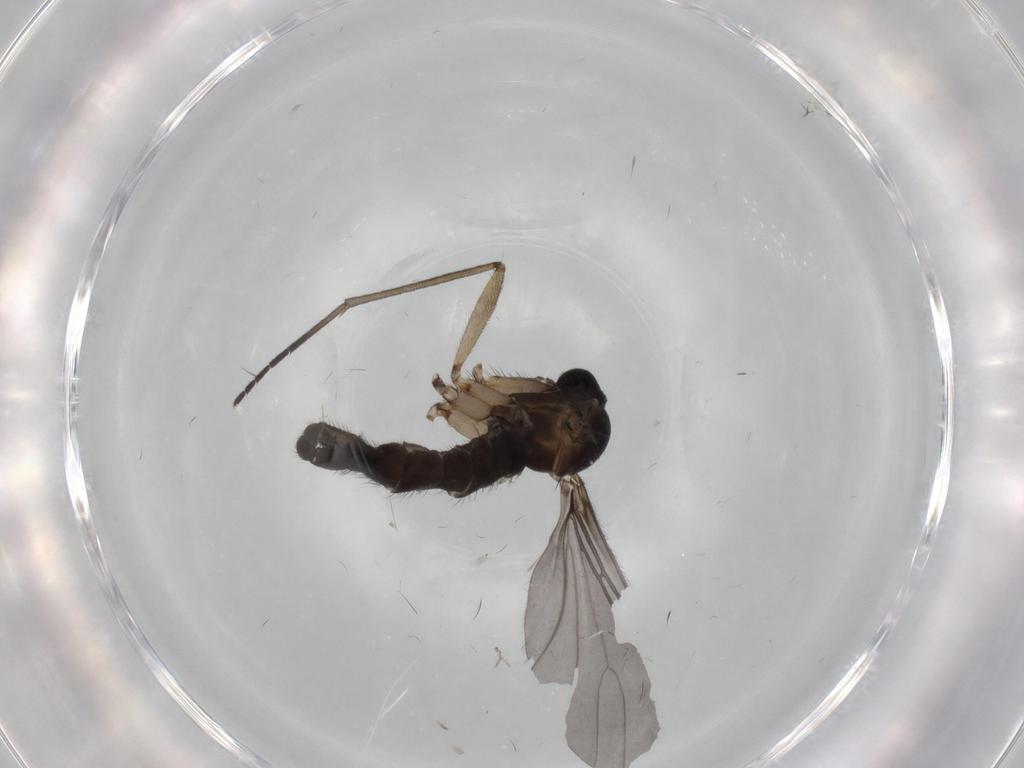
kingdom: Animalia
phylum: Arthropoda
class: Insecta
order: Diptera
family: Sciaridae
